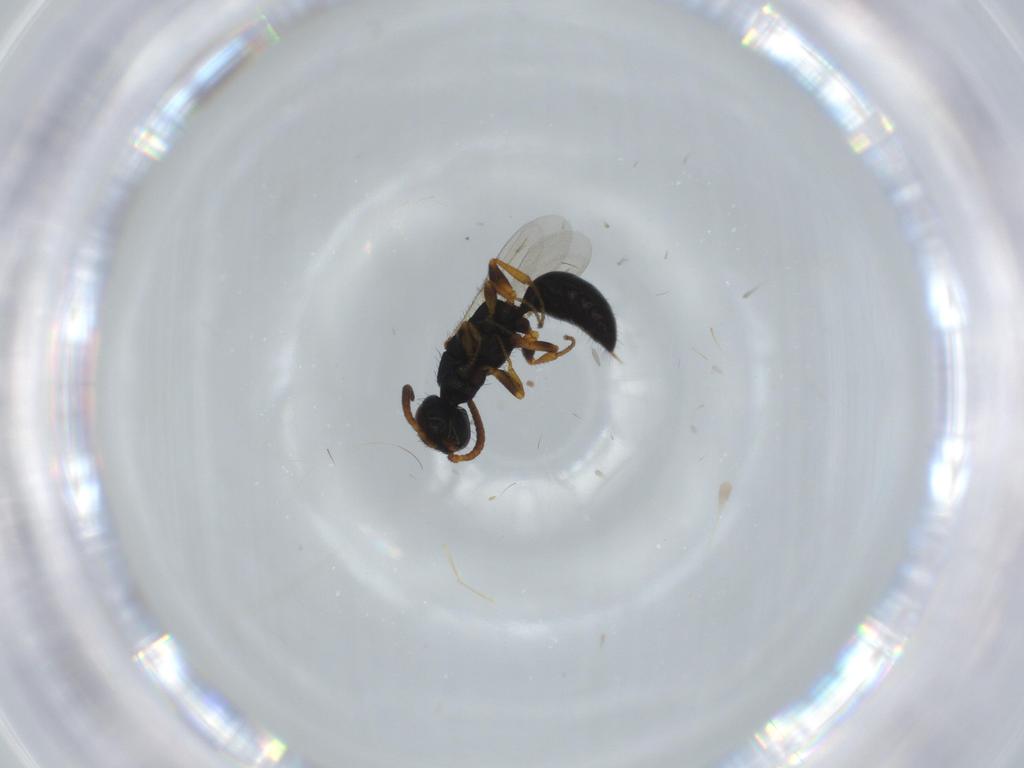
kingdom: Animalia
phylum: Arthropoda
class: Insecta
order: Hymenoptera
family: Bethylidae
